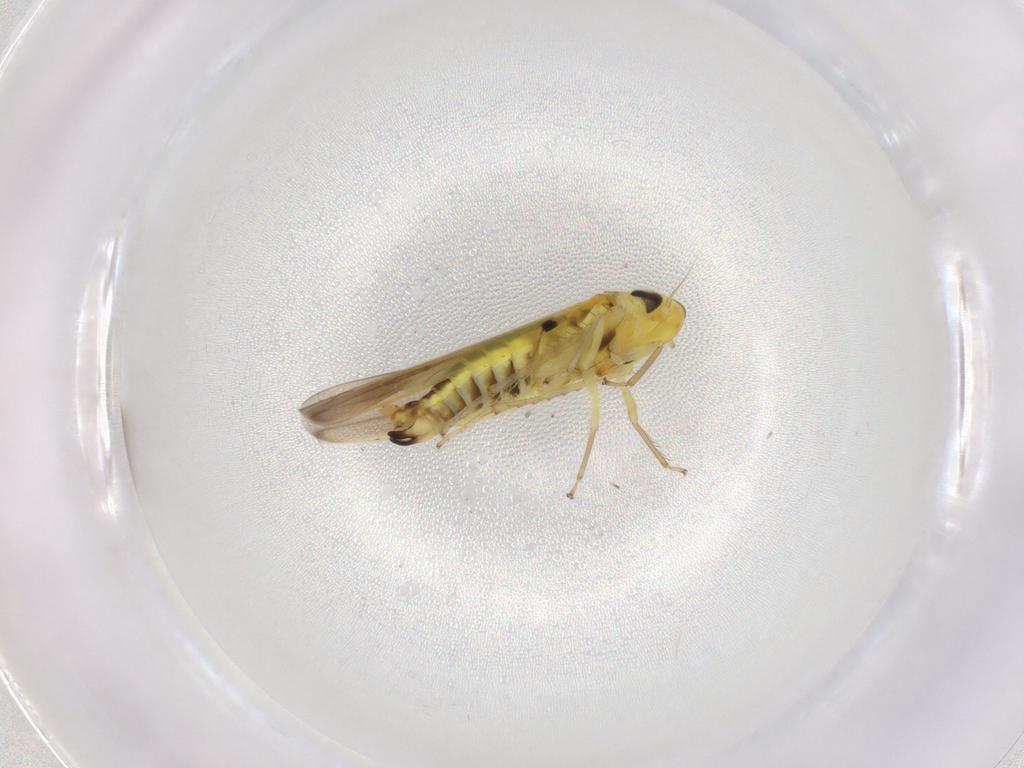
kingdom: Animalia
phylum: Arthropoda
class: Insecta
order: Hemiptera
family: Cicadellidae
